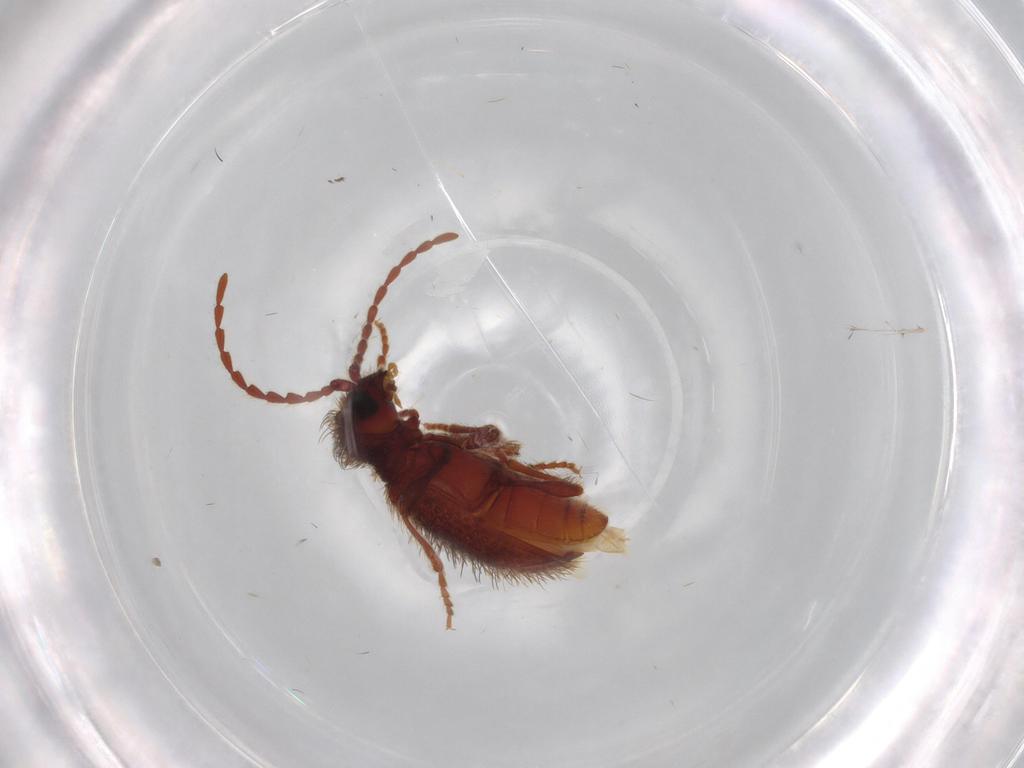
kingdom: Animalia
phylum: Arthropoda
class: Insecta
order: Coleoptera
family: Ptinidae
